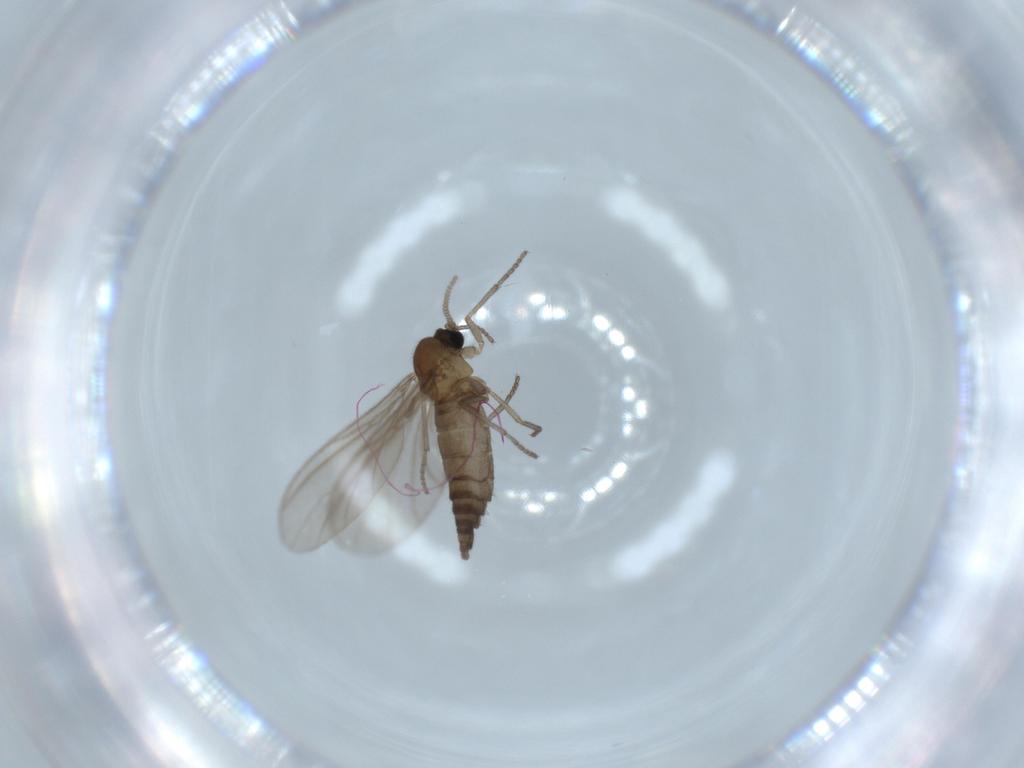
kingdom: Animalia
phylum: Arthropoda
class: Insecta
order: Diptera
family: Sciaridae
